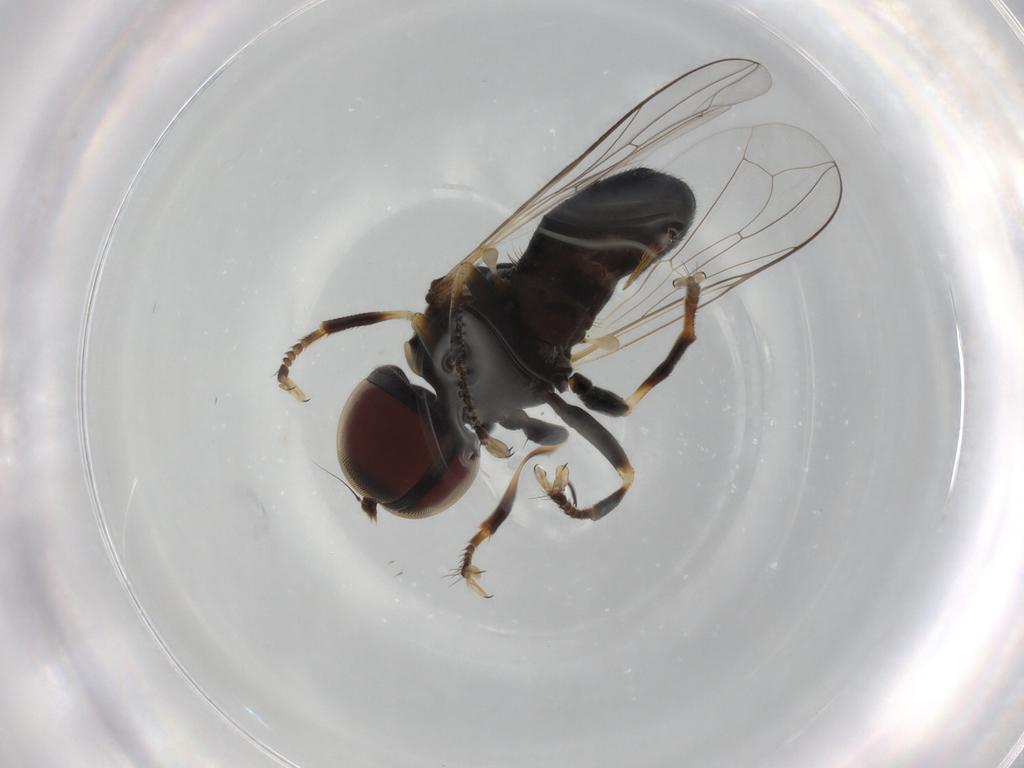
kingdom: Animalia
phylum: Arthropoda
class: Insecta
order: Diptera
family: Pipunculidae
